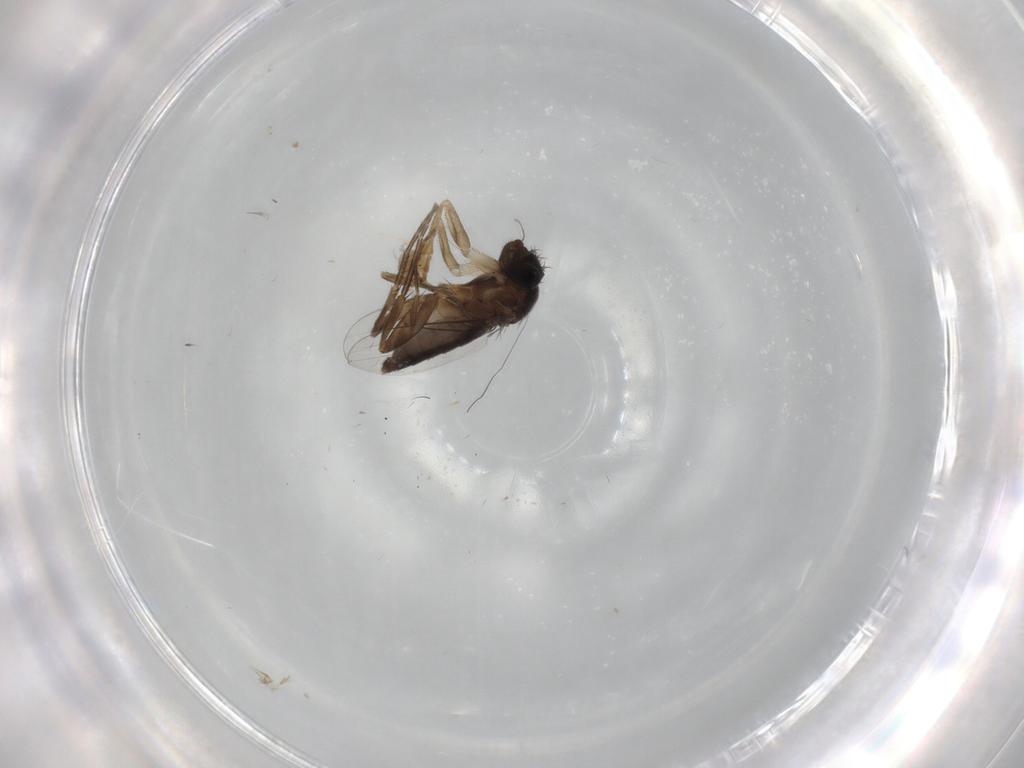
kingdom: Animalia
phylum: Arthropoda
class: Insecta
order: Diptera
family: Phoridae
